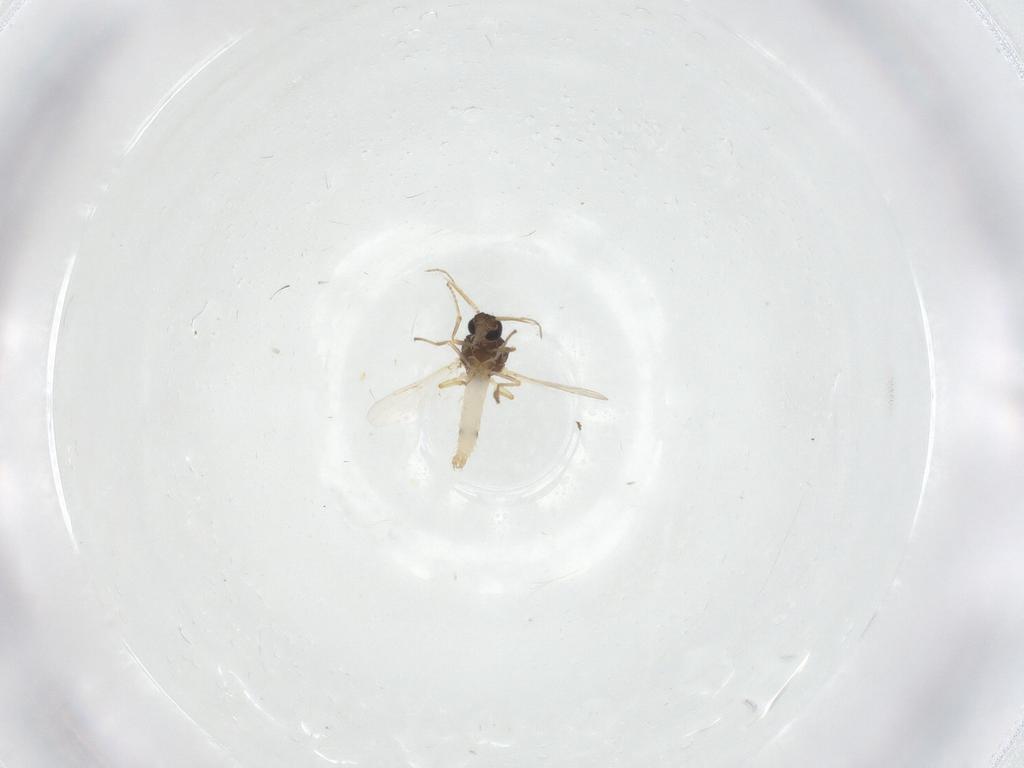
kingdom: Animalia
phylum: Arthropoda
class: Insecta
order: Diptera
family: Ceratopogonidae
